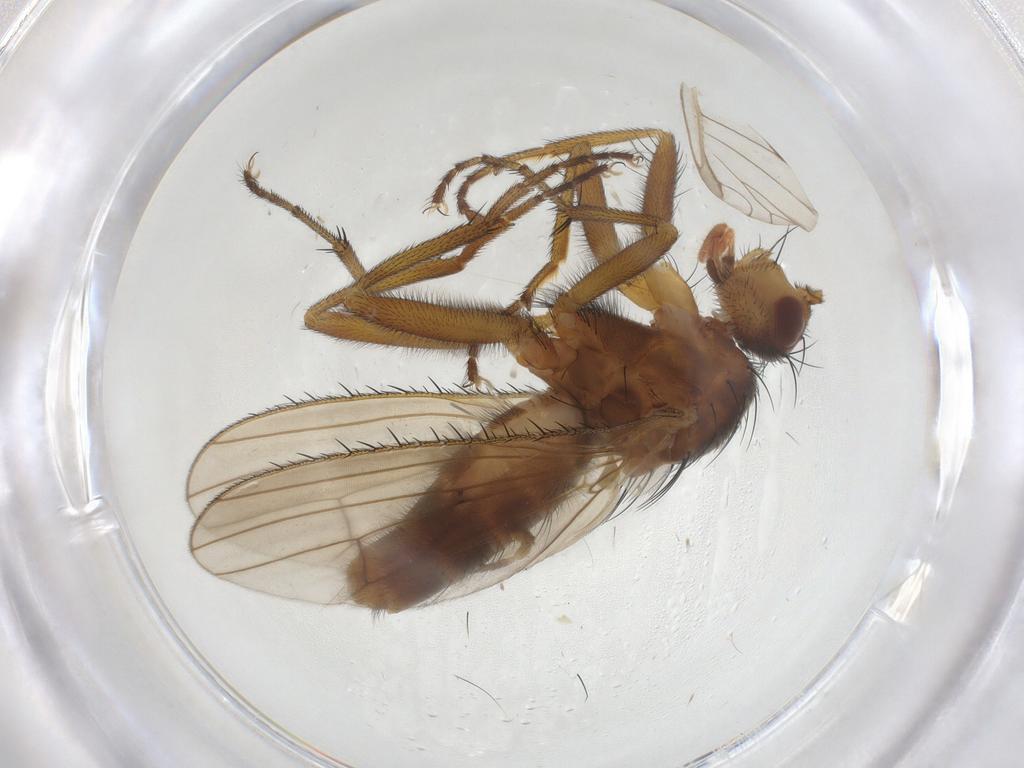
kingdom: Animalia
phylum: Arthropoda
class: Insecta
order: Diptera
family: Heleomyzidae
